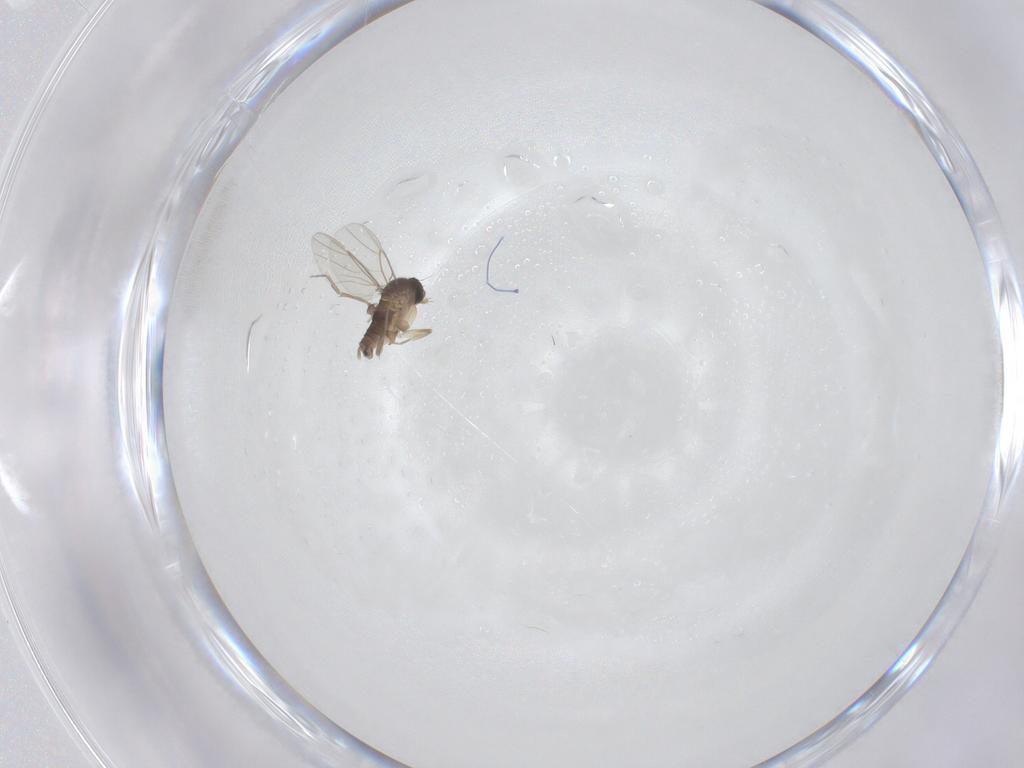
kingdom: Animalia
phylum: Arthropoda
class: Insecta
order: Diptera
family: Phoridae
